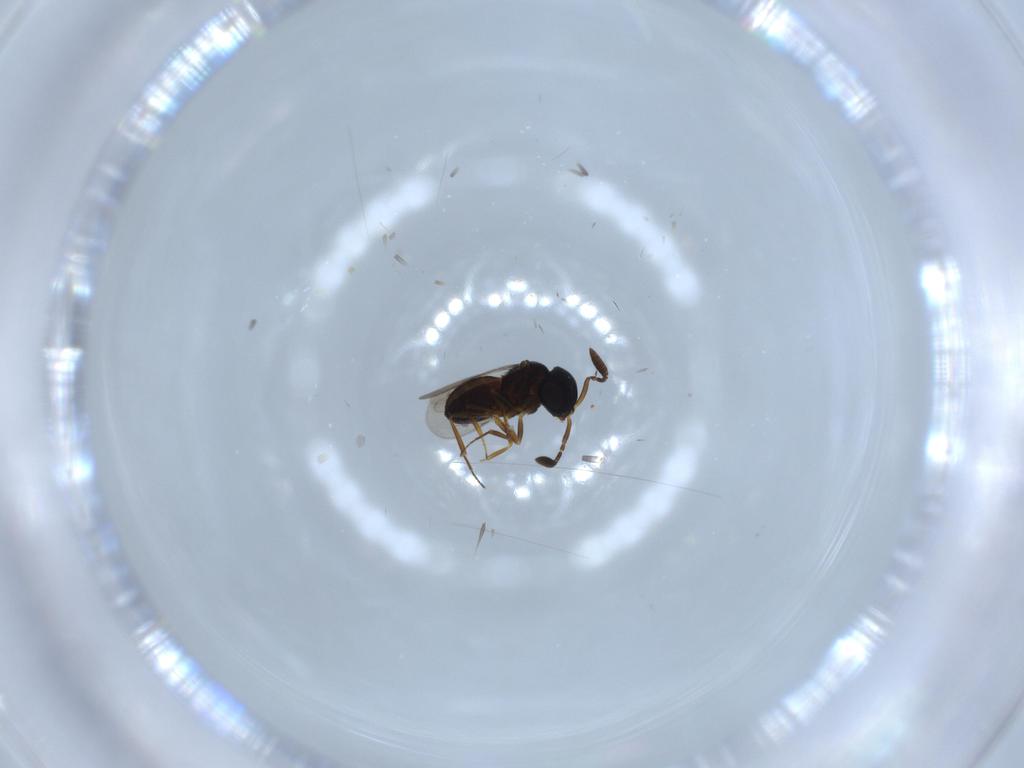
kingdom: Animalia
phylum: Arthropoda
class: Insecta
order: Hymenoptera
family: Scelionidae
